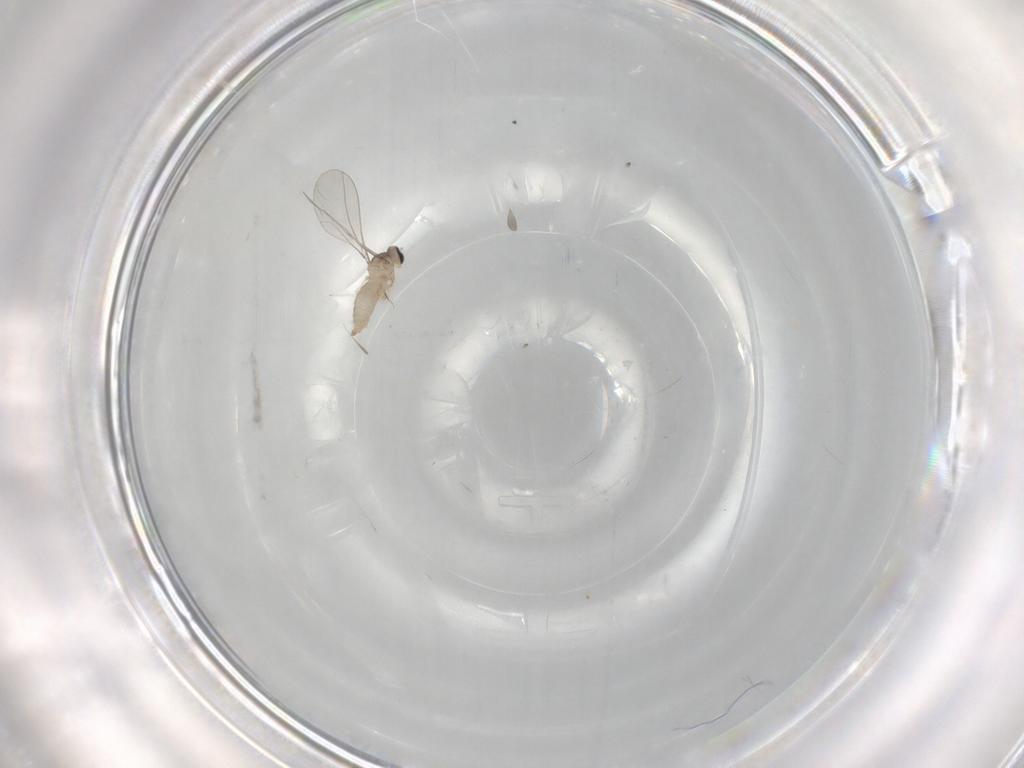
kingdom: Animalia
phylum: Arthropoda
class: Insecta
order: Diptera
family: Cecidomyiidae
